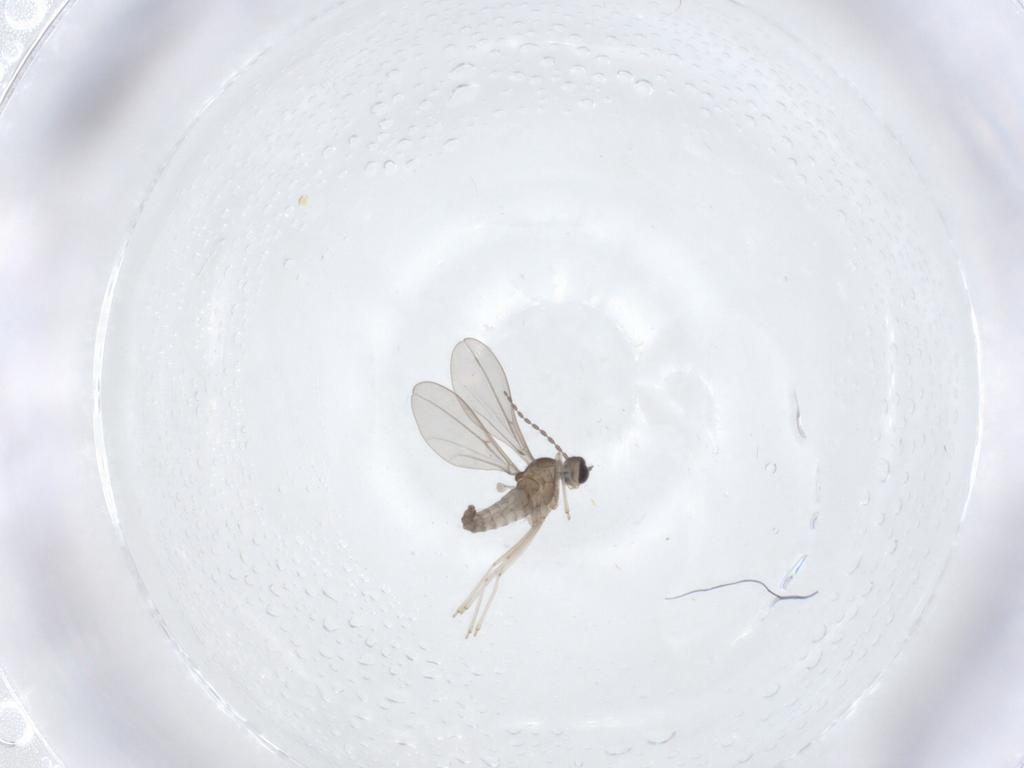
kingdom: Animalia
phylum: Arthropoda
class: Insecta
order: Diptera
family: Cecidomyiidae
